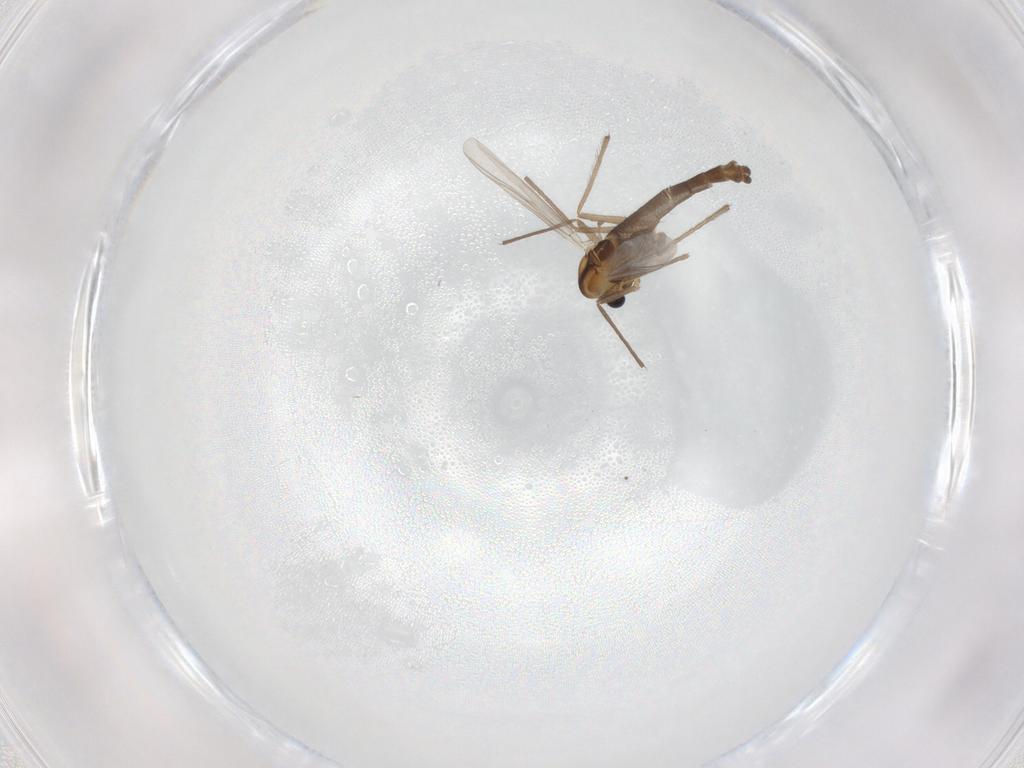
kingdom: Animalia
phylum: Arthropoda
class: Insecta
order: Diptera
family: Chironomidae
